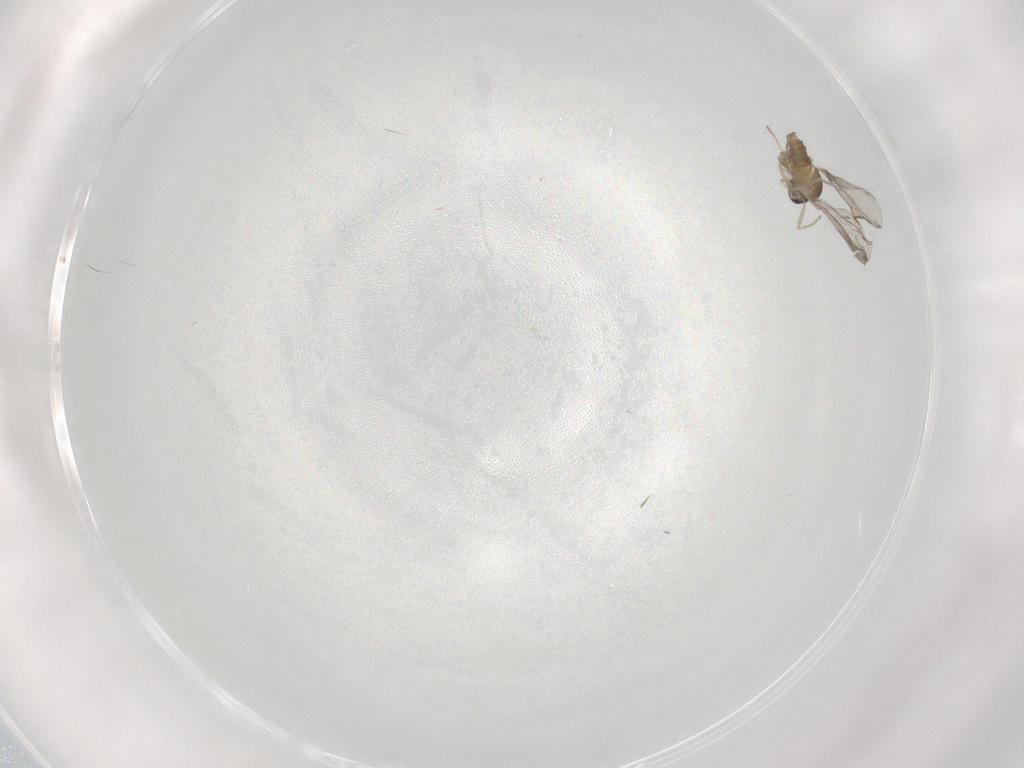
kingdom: Animalia
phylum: Arthropoda
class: Insecta
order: Diptera
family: Cecidomyiidae
